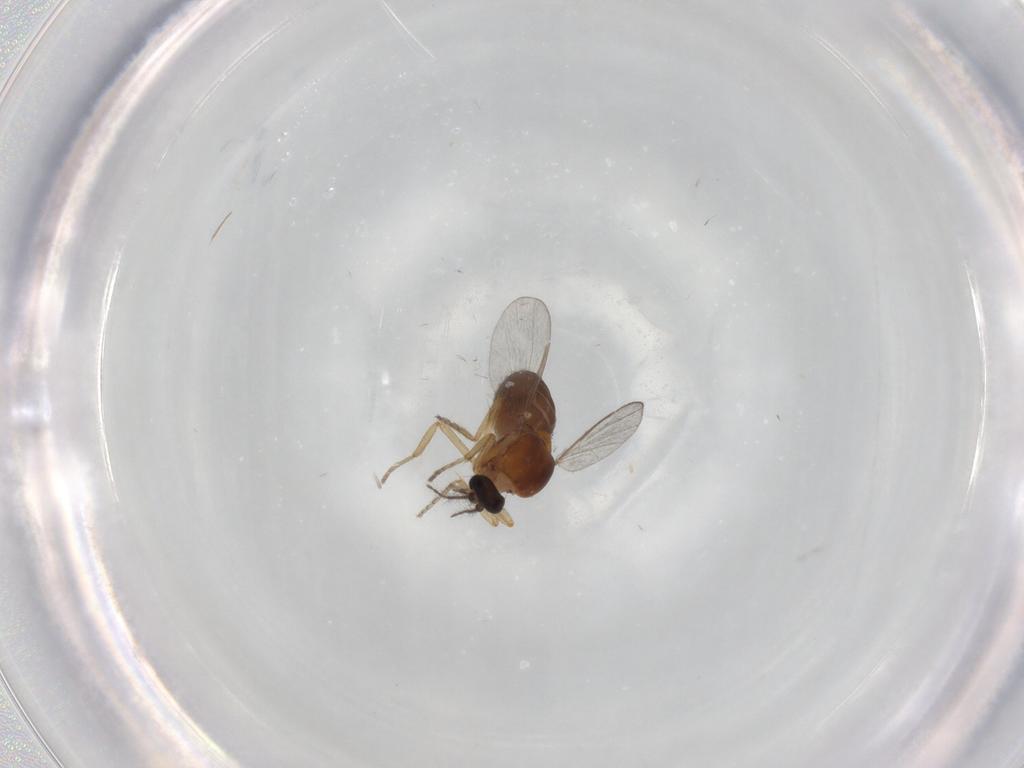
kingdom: Animalia
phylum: Arthropoda
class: Insecta
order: Diptera
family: Ceratopogonidae
